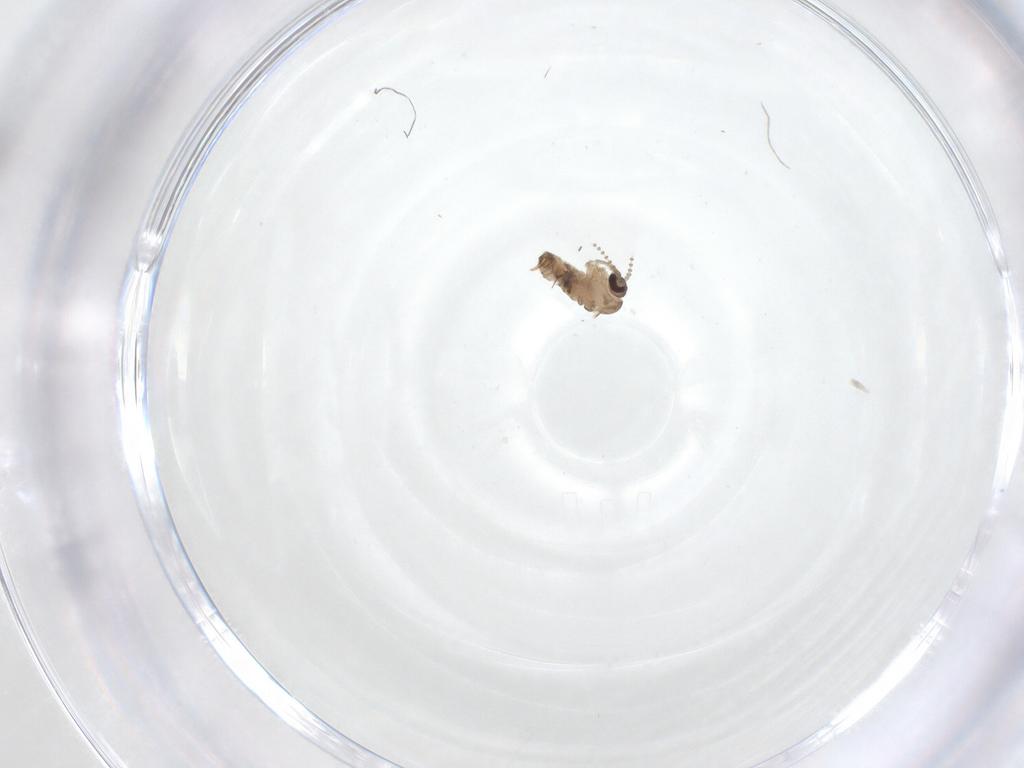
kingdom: Animalia
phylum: Arthropoda
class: Insecta
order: Diptera
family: Psychodidae
